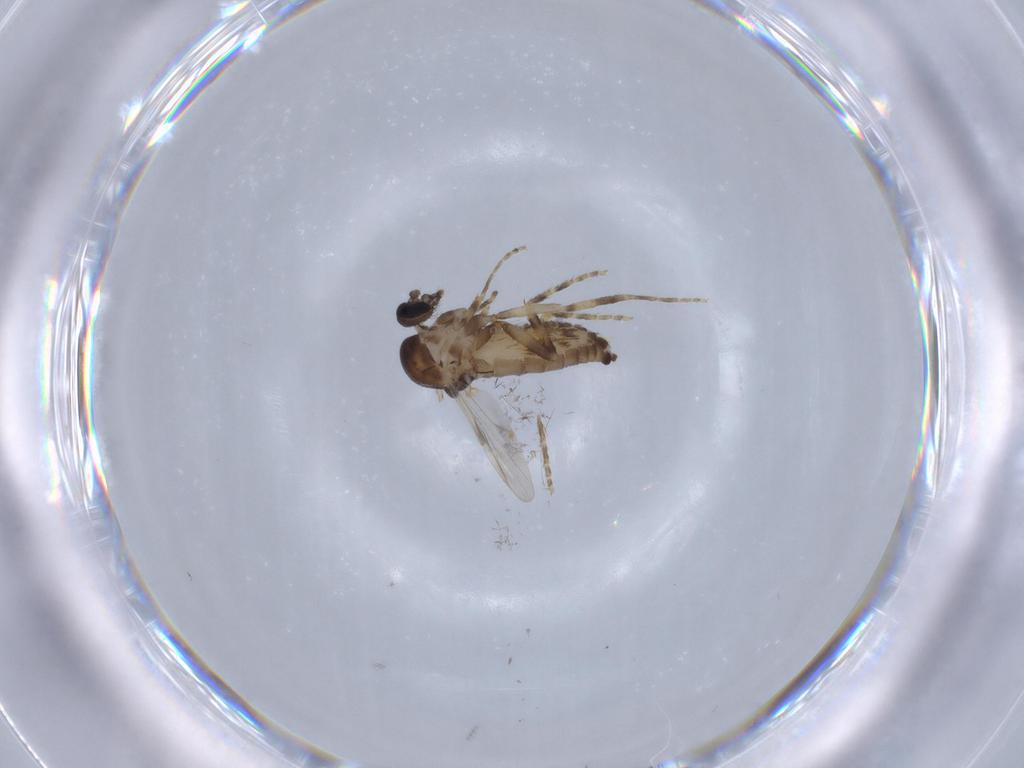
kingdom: Animalia
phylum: Arthropoda
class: Insecta
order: Diptera
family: Ceratopogonidae
